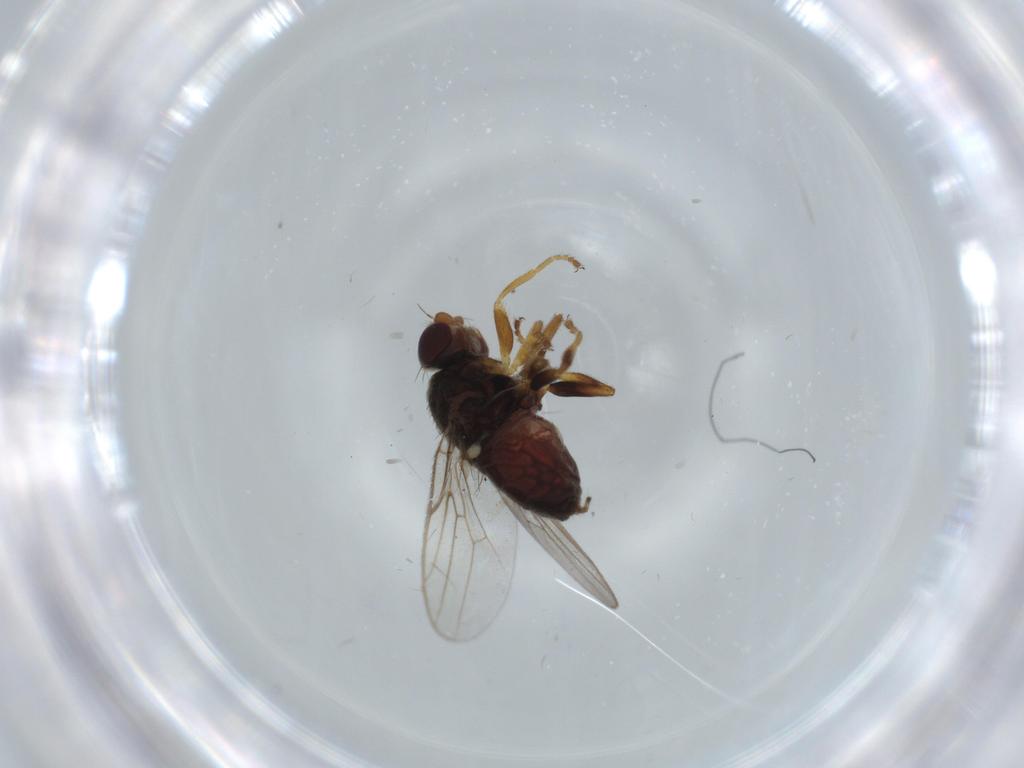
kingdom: Animalia
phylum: Arthropoda
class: Insecta
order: Diptera
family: Chloropidae
